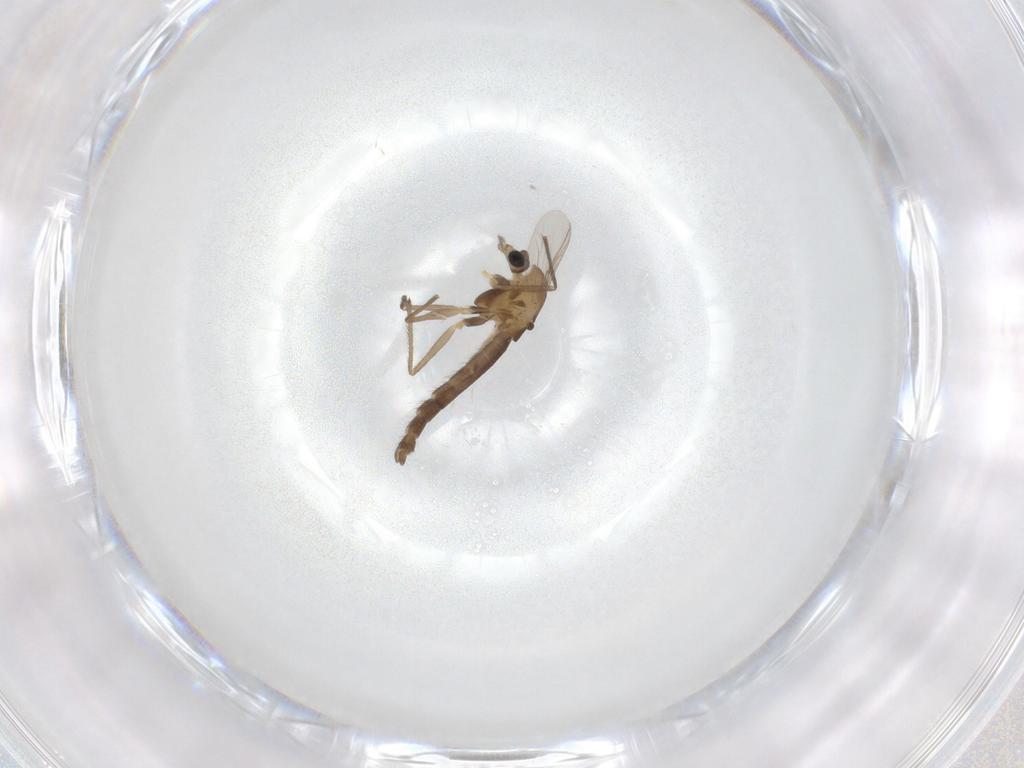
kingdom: Animalia
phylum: Arthropoda
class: Insecta
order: Diptera
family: Chironomidae
